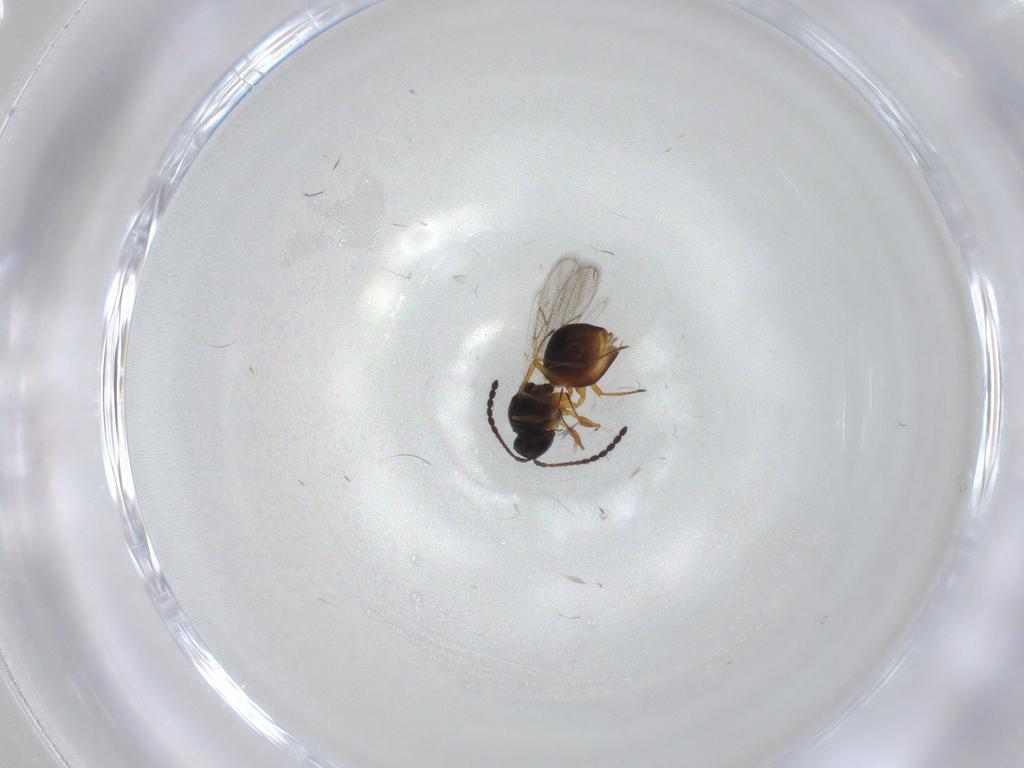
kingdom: Animalia
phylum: Arthropoda
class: Insecta
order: Hymenoptera
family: Figitidae
